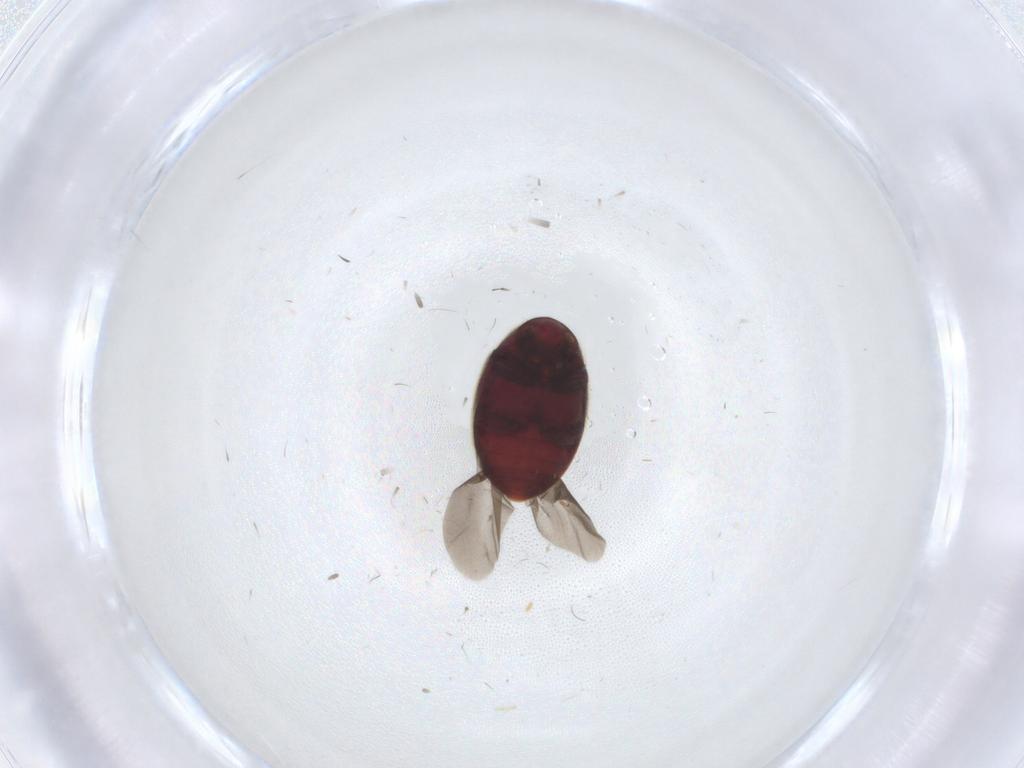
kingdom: Animalia
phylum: Arthropoda
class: Insecta
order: Coleoptera
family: Ptinidae
